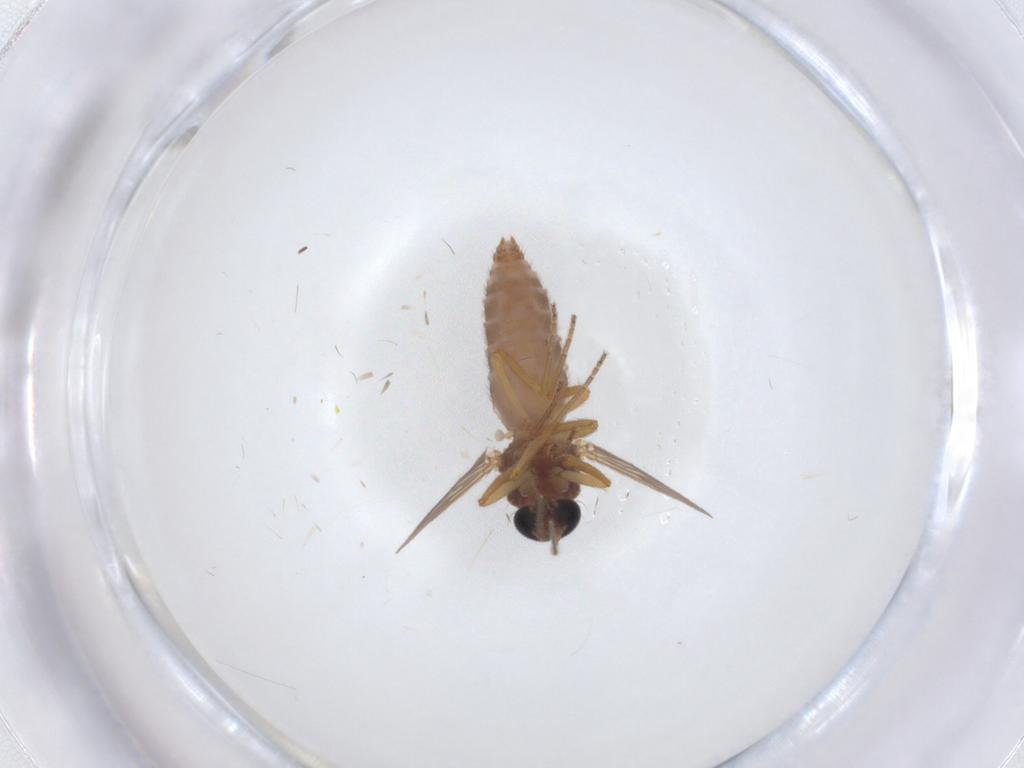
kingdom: Animalia
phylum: Arthropoda
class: Insecta
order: Diptera
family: Ceratopogonidae
